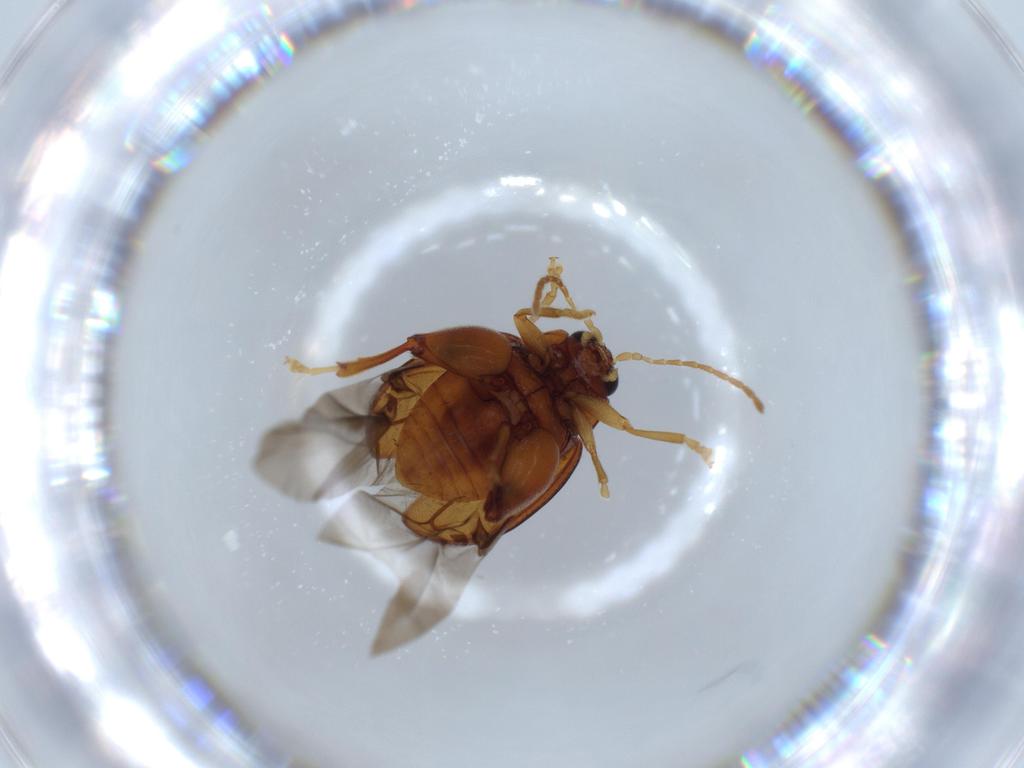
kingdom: Animalia
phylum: Arthropoda
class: Insecta
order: Coleoptera
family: Chrysomelidae
